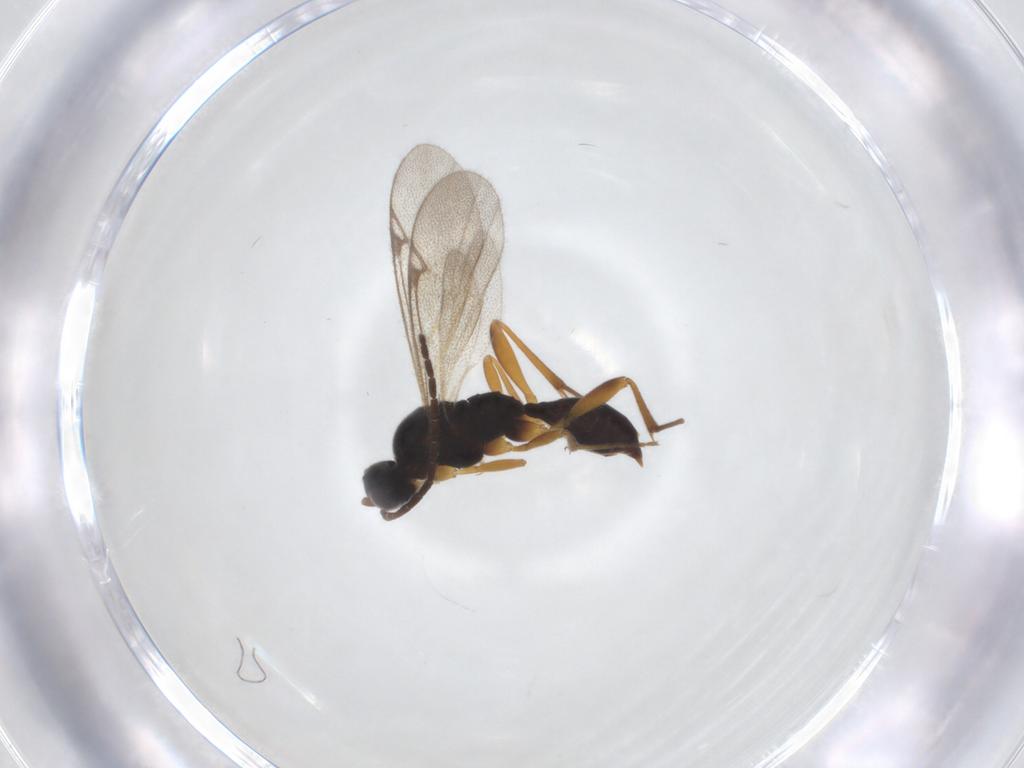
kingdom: Animalia
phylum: Arthropoda
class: Insecta
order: Hymenoptera
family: Proctotrupidae
